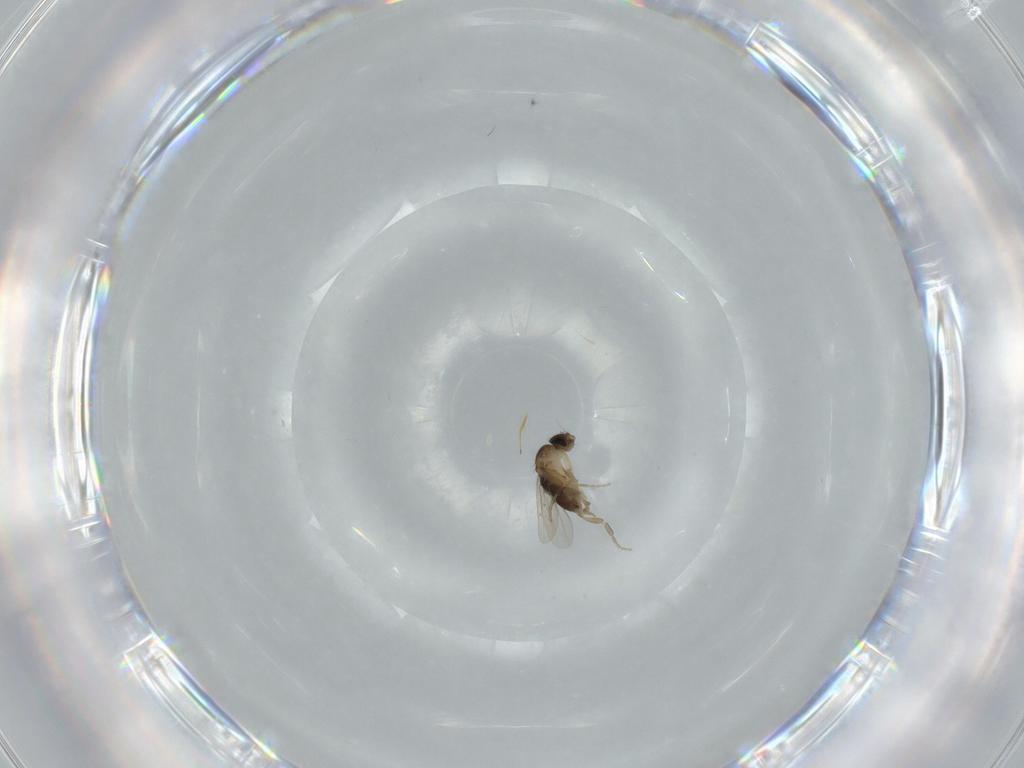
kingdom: Animalia
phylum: Arthropoda
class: Insecta
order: Diptera
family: Phoridae
